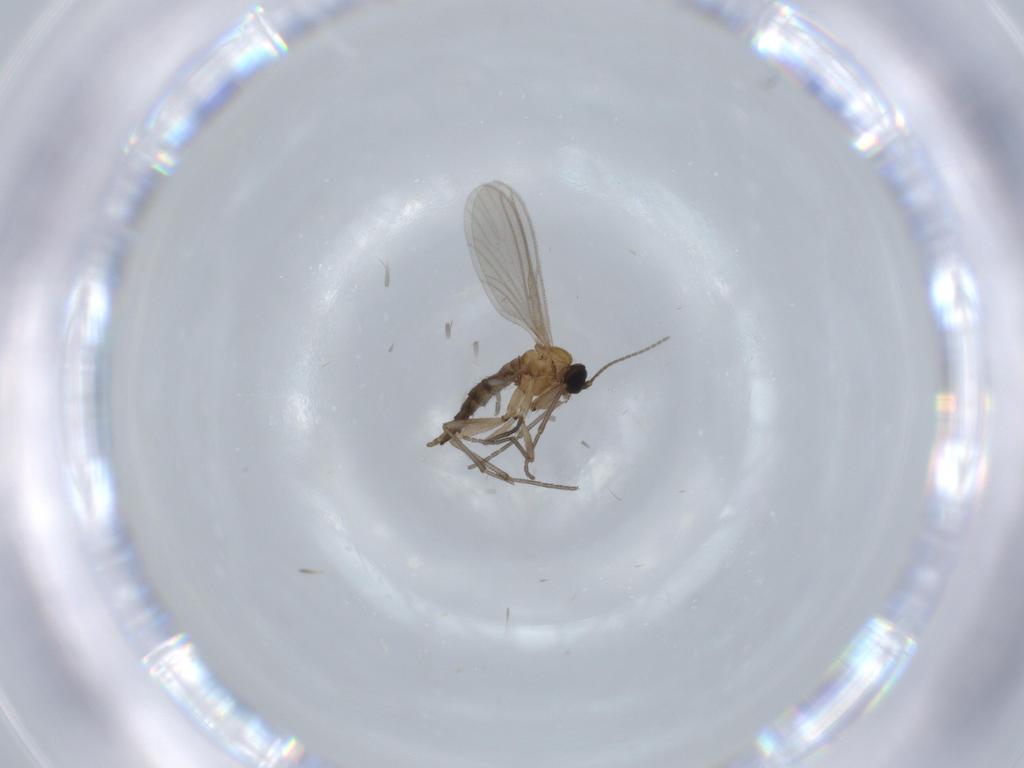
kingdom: Animalia
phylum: Arthropoda
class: Insecta
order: Diptera
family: Sciaridae
